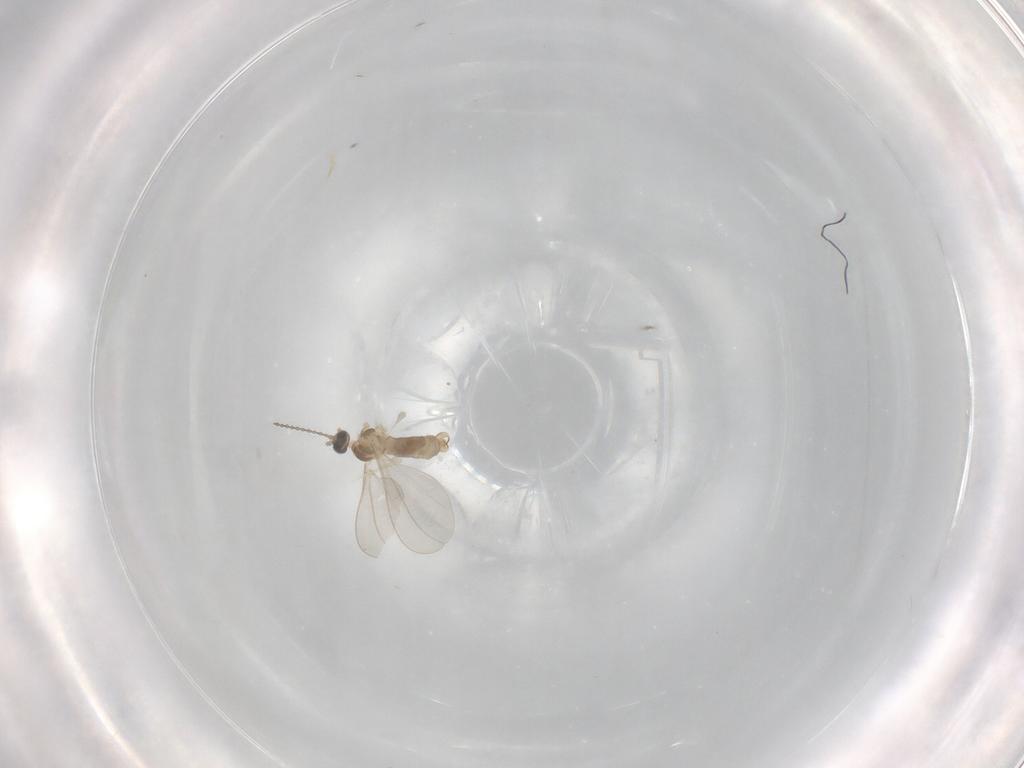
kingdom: Animalia
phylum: Arthropoda
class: Insecta
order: Diptera
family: Cecidomyiidae
